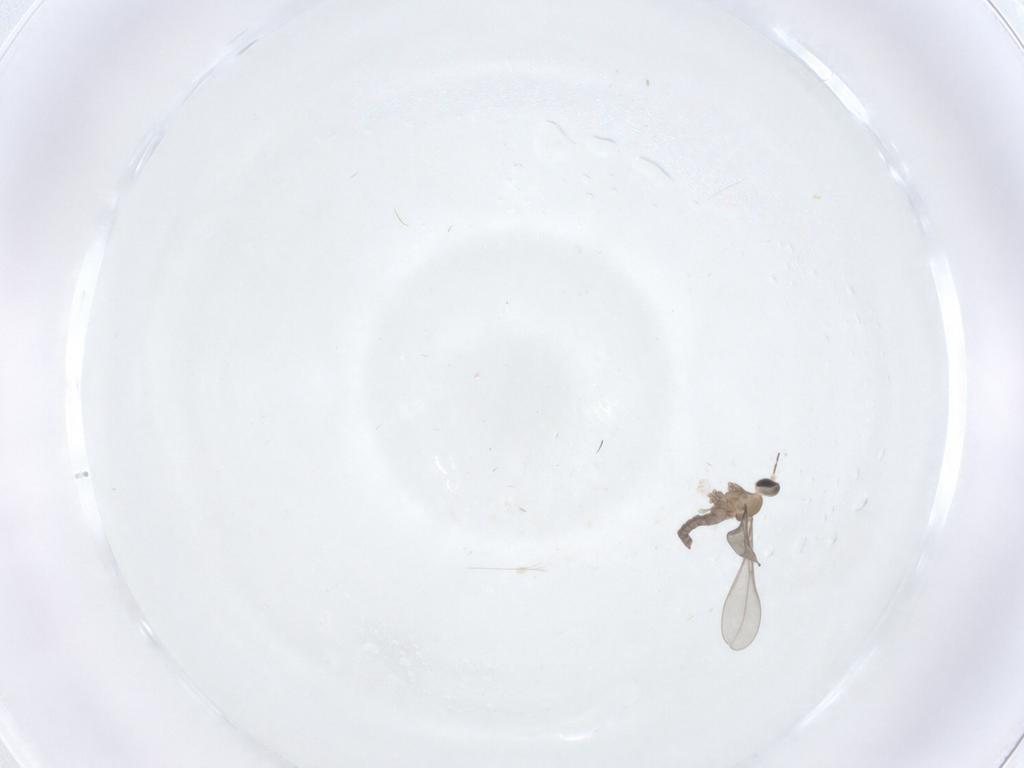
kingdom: Animalia
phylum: Arthropoda
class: Insecta
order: Diptera
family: Cecidomyiidae
